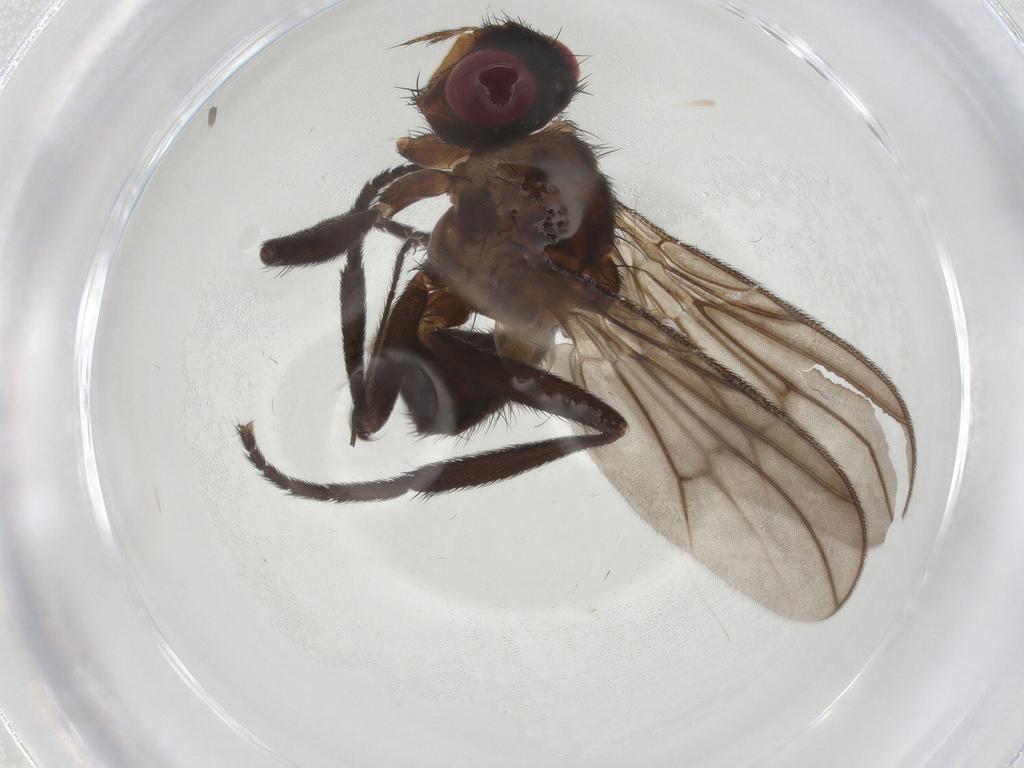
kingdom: Animalia
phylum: Arthropoda
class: Insecta
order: Diptera
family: Calliphoridae
